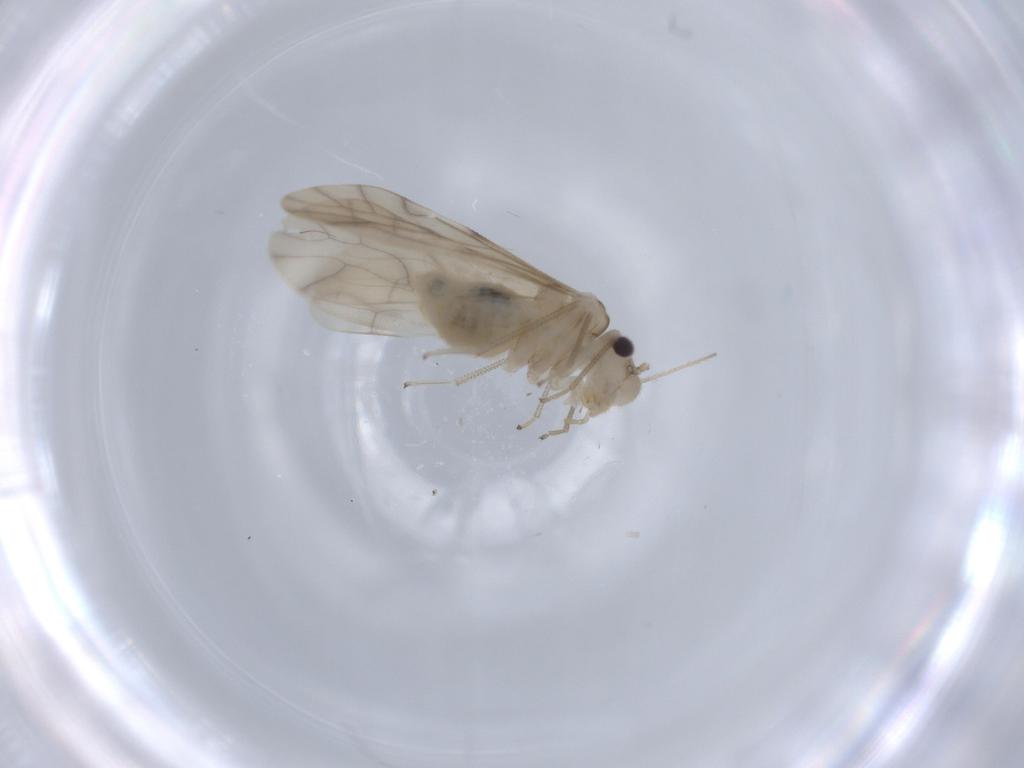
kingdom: Animalia
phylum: Arthropoda
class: Insecta
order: Psocodea
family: Caeciliusidae
